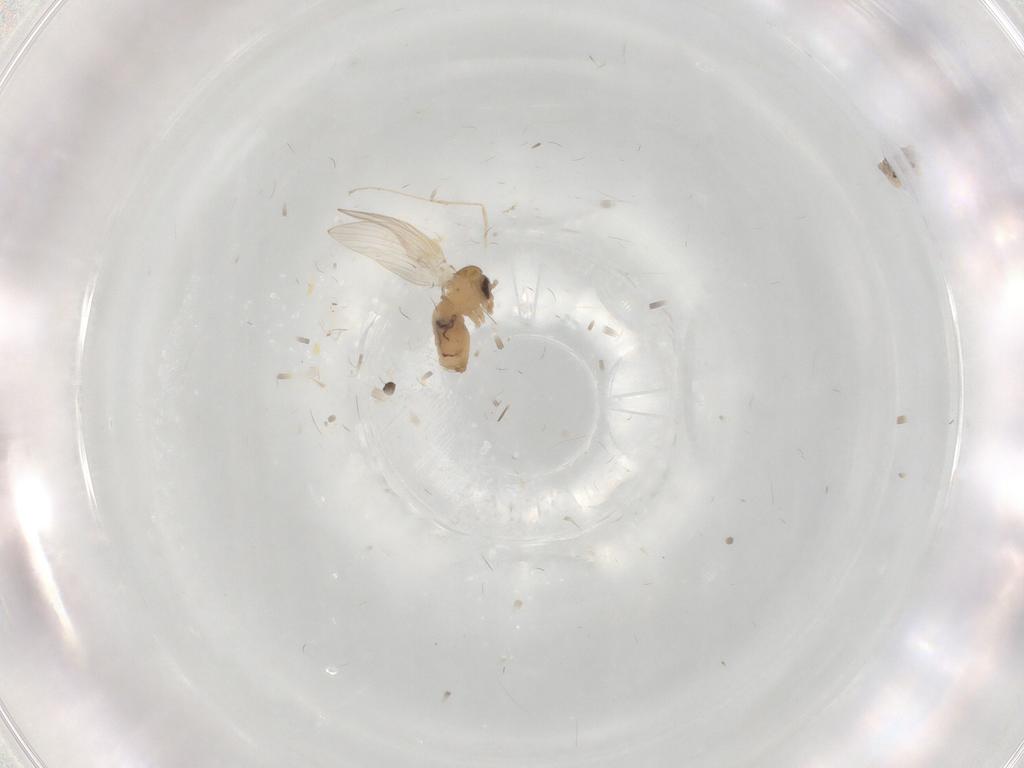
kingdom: Animalia
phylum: Arthropoda
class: Insecta
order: Diptera
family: Psychodidae
